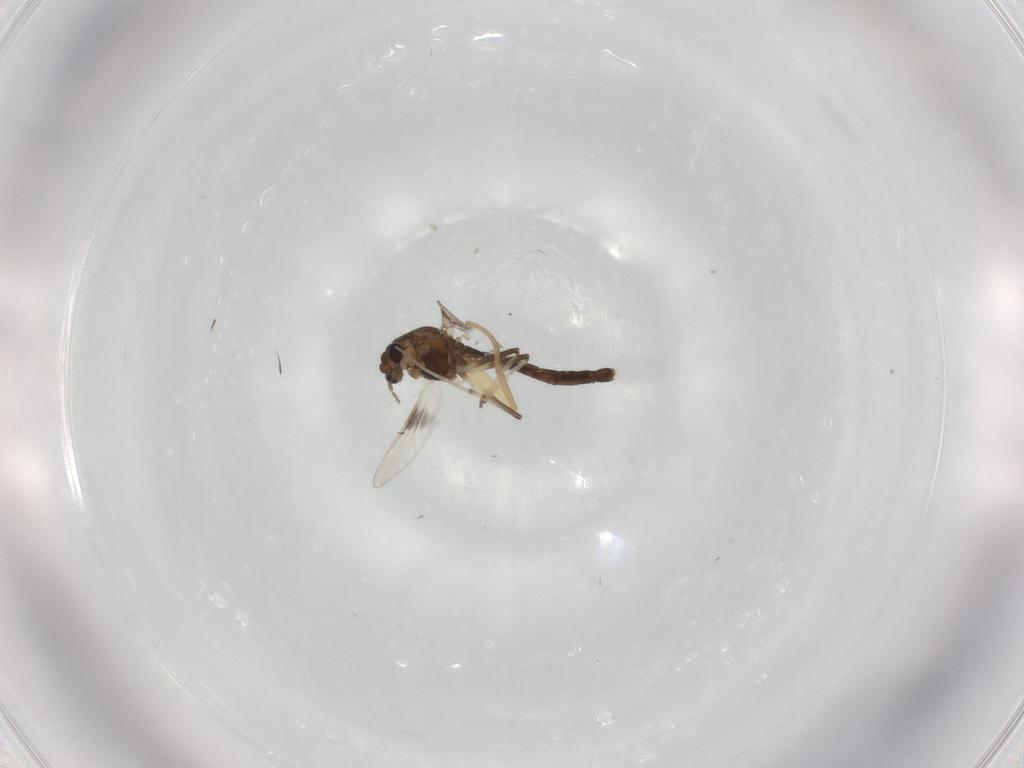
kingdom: Animalia
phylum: Arthropoda
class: Insecta
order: Diptera
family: Dolichopodidae
